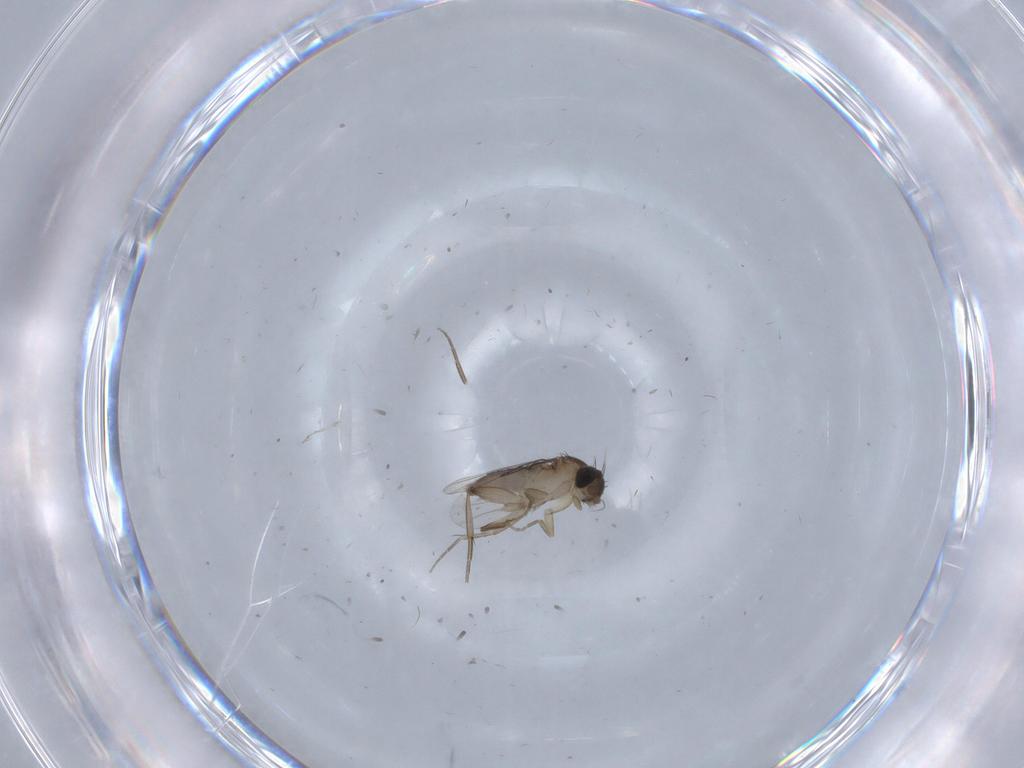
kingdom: Animalia
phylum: Arthropoda
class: Insecta
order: Diptera
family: Phoridae
